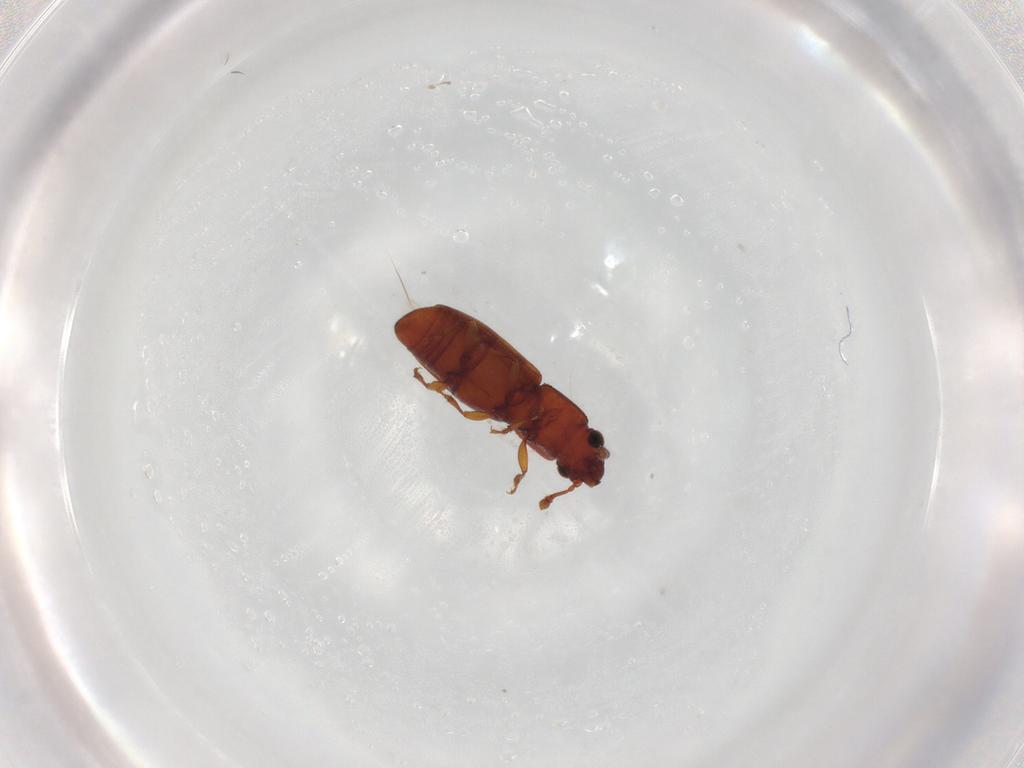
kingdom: Animalia
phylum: Arthropoda
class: Insecta
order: Coleoptera
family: Monotomidae
